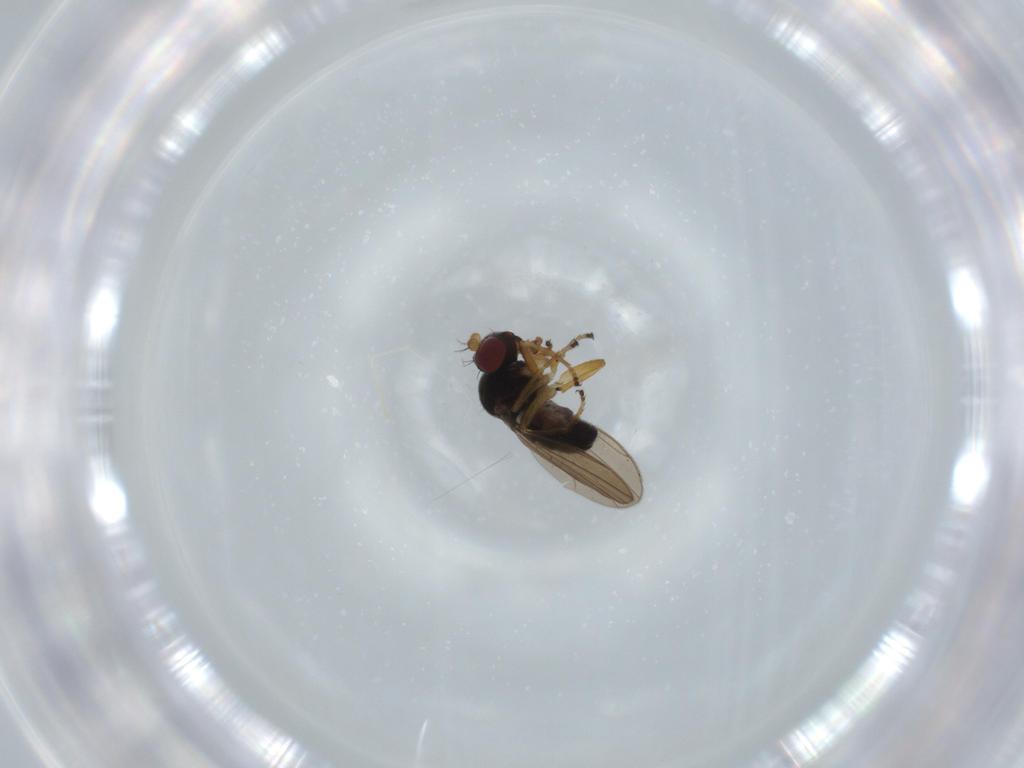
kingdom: Animalia
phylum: Arthropoda
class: Insecta
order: Diptera
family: Ephydridae
